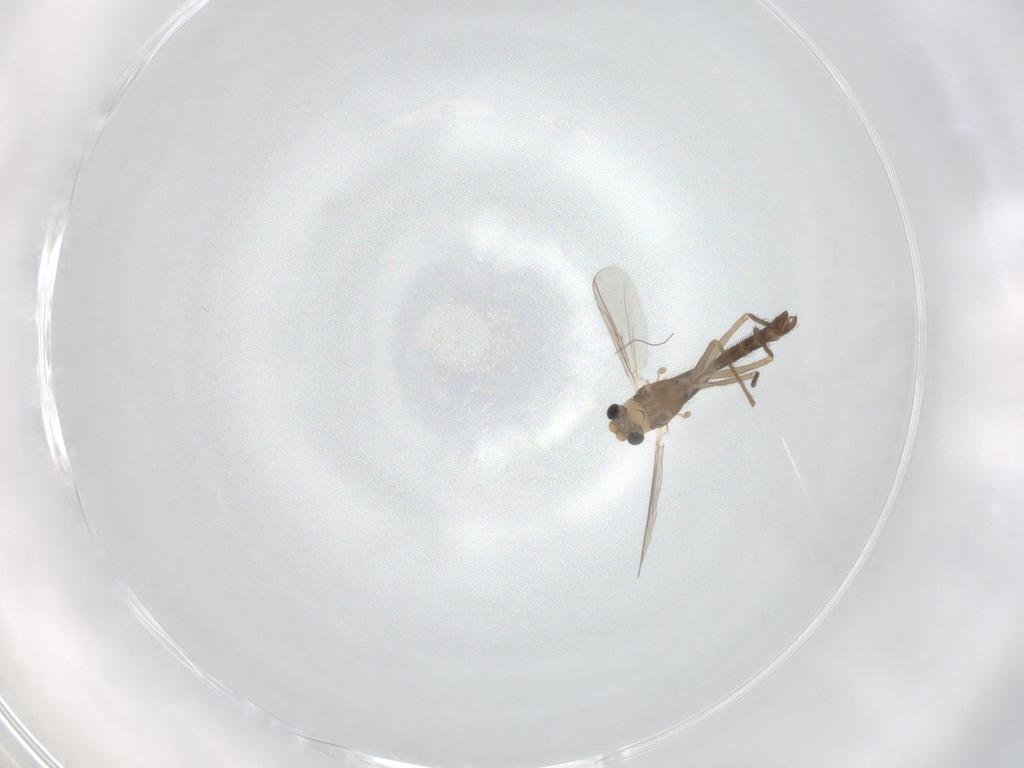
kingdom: Animalia
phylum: Arthropoda
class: Insecta
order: Diptera
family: Chironomidae
